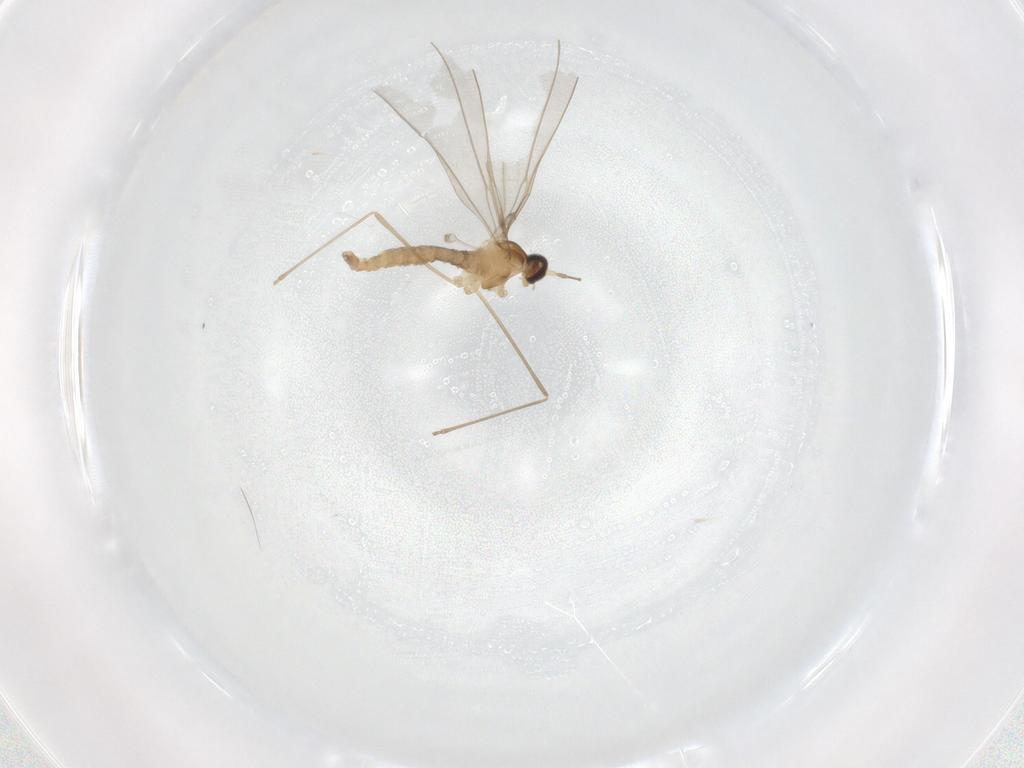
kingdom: Animalia
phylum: Arthropoda
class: Insecta
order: Diptera
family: Cecidomyiidae
